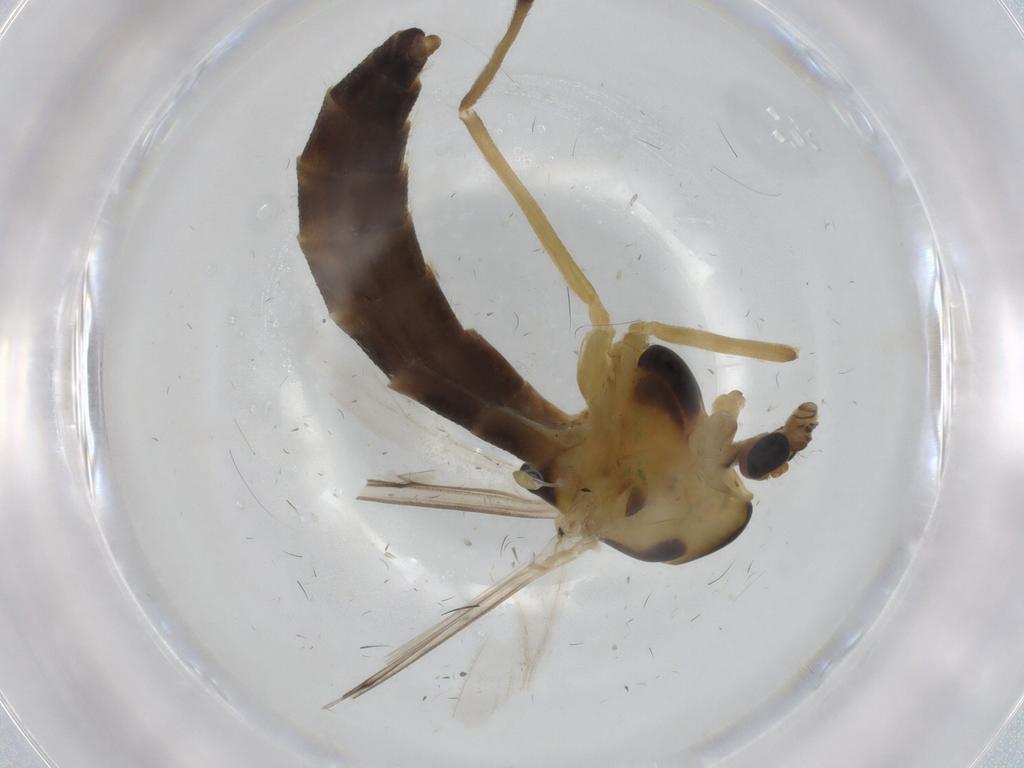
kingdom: Animalia
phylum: Arthropoda
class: Insecta
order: Diptera
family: Chironomidae
